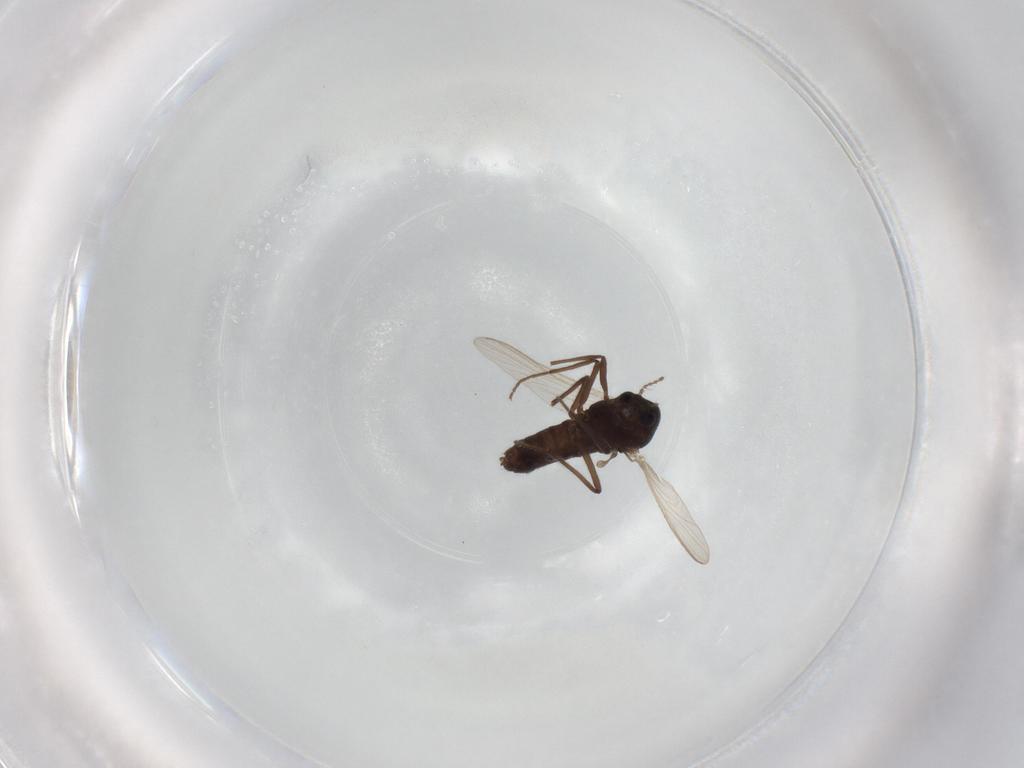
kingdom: Animalia
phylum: Arthropoda
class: Insecta
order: Diptera
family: Chironomidae
